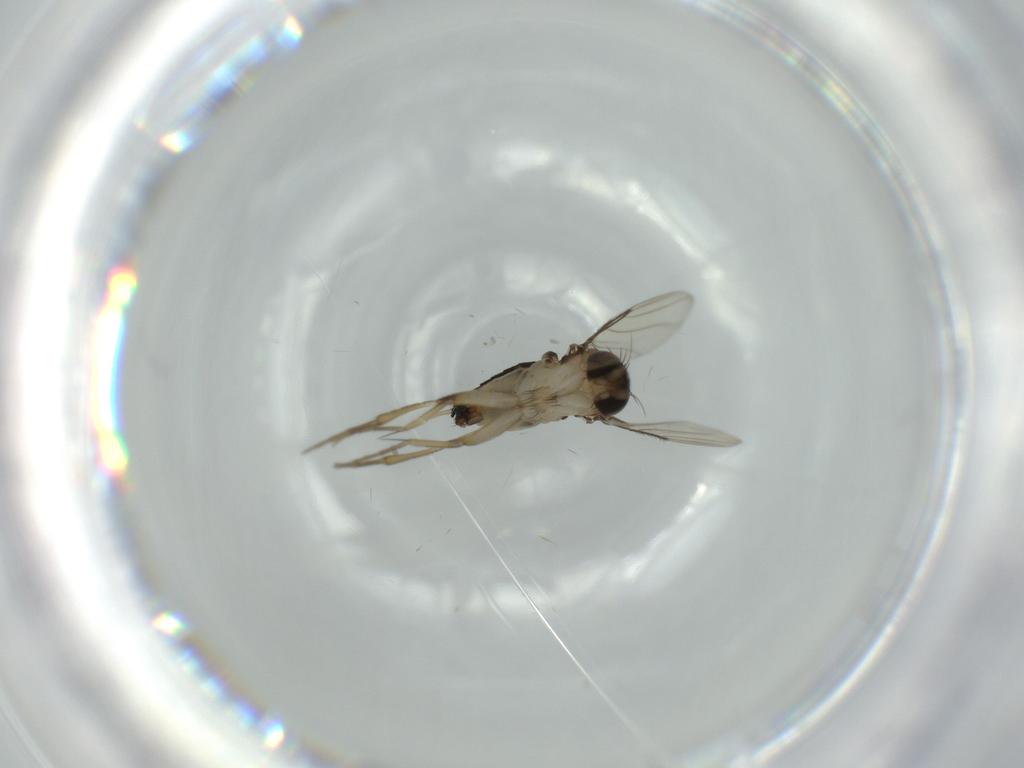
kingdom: Animalia
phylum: Arthropoda
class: Insecta
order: Diptera
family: Phoridae
